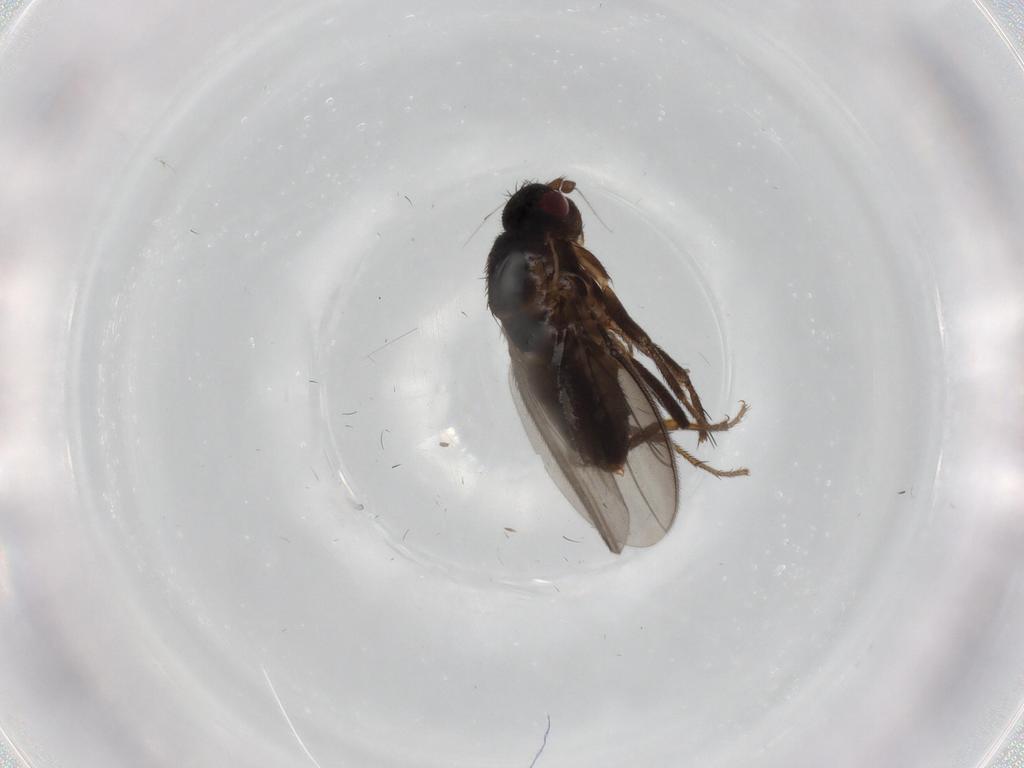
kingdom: Animalia
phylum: Arthropoda
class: Insecta
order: Diptera
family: Sphaeroceridae
